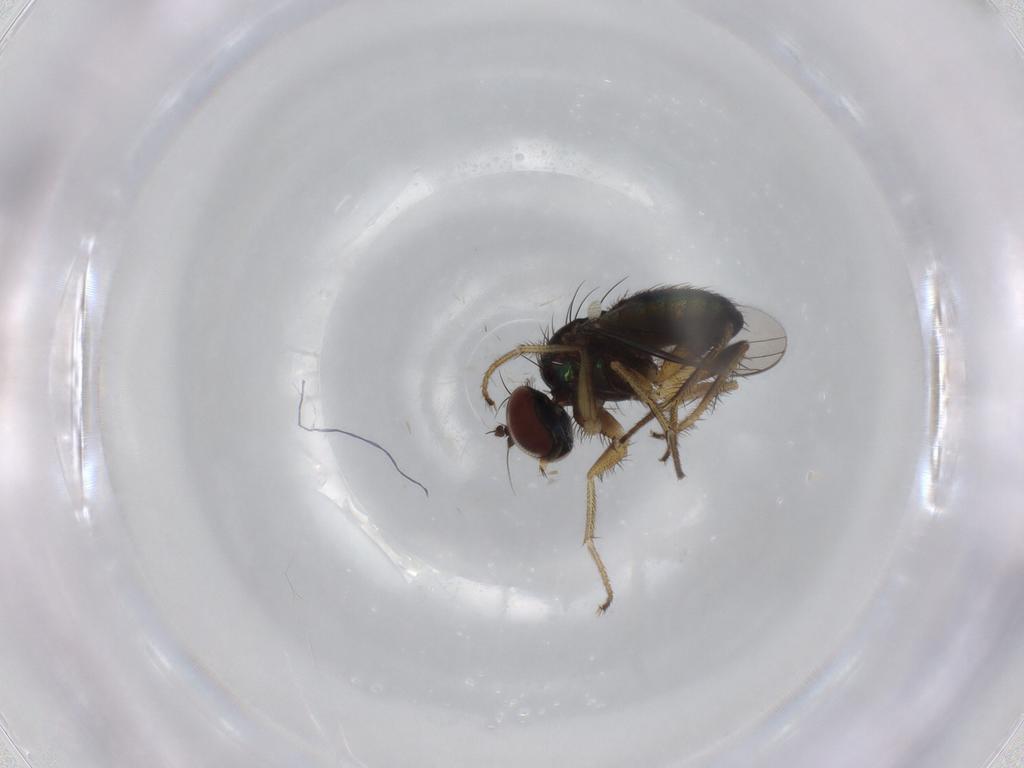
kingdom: Animalia
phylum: Arthropoda
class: Insecta
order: Diptera
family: Dolichopodidae
